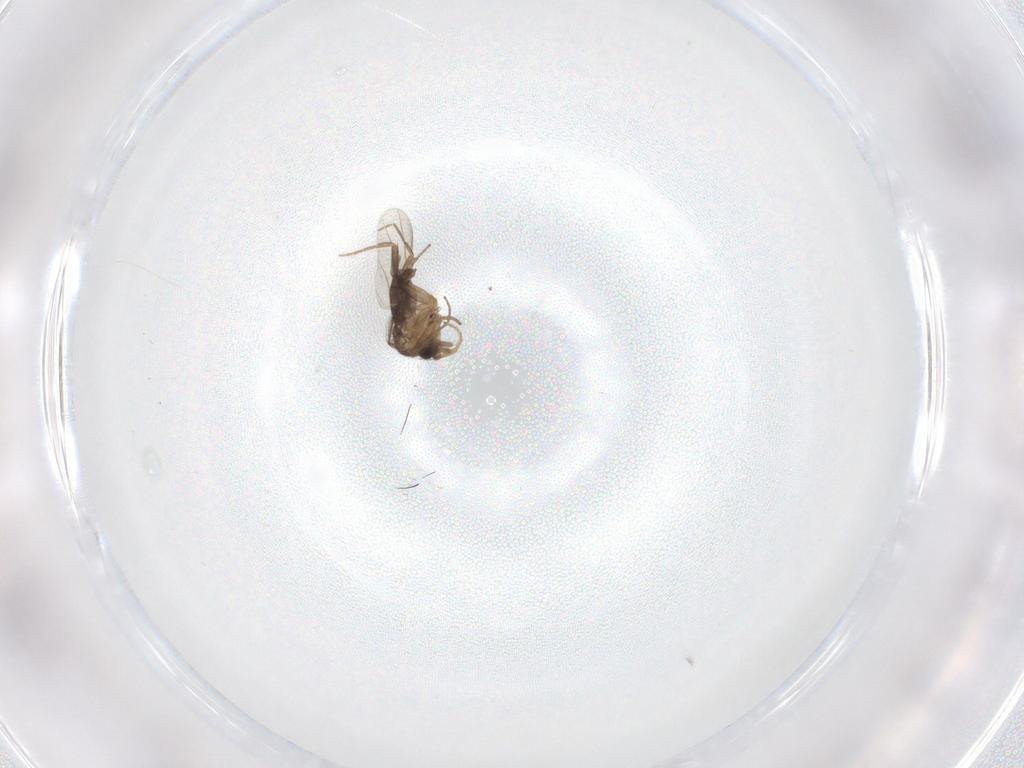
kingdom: Animalia
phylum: Arthropoda
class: Insecta
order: Diptera
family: Phoridae
